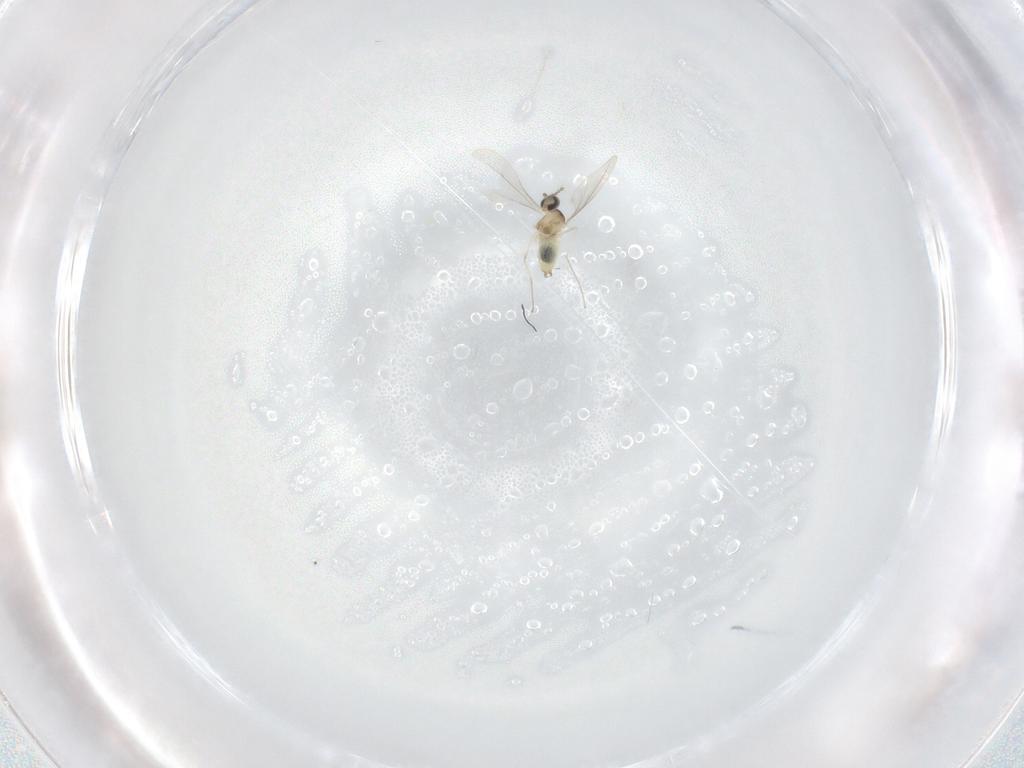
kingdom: Animalia
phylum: Arthropoda
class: Insecta
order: Diptera
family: Cecidomyiidae
